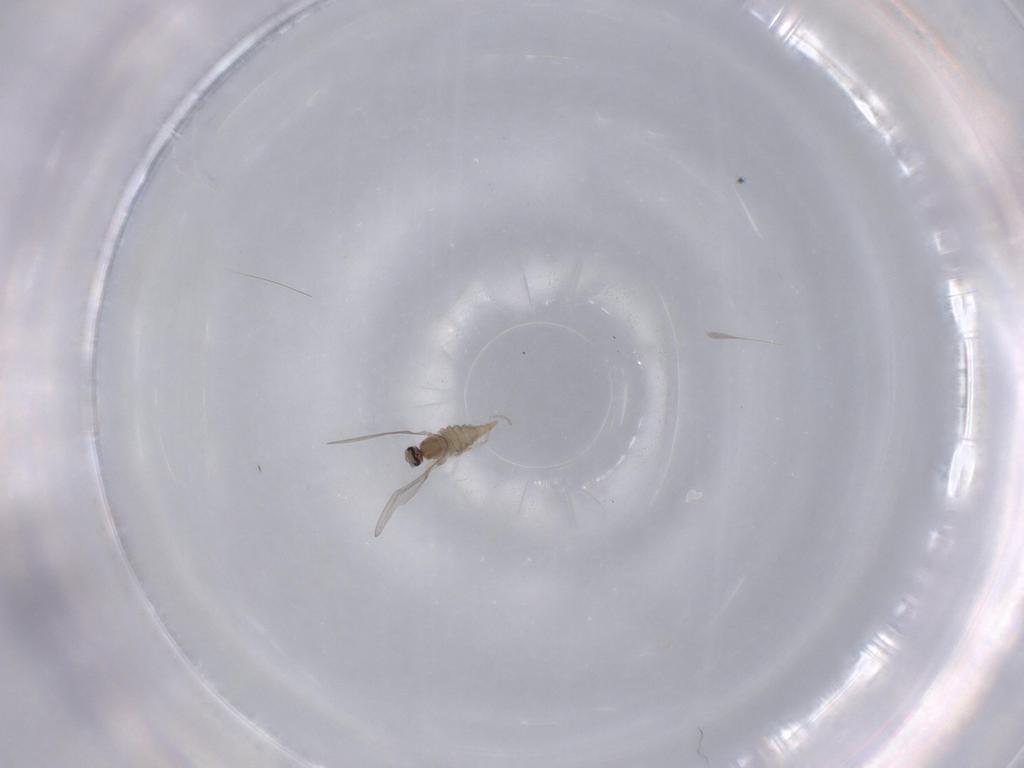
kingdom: Animalia
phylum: Arthropoda
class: Insecta
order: Diptera
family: Cecidomyiidae
